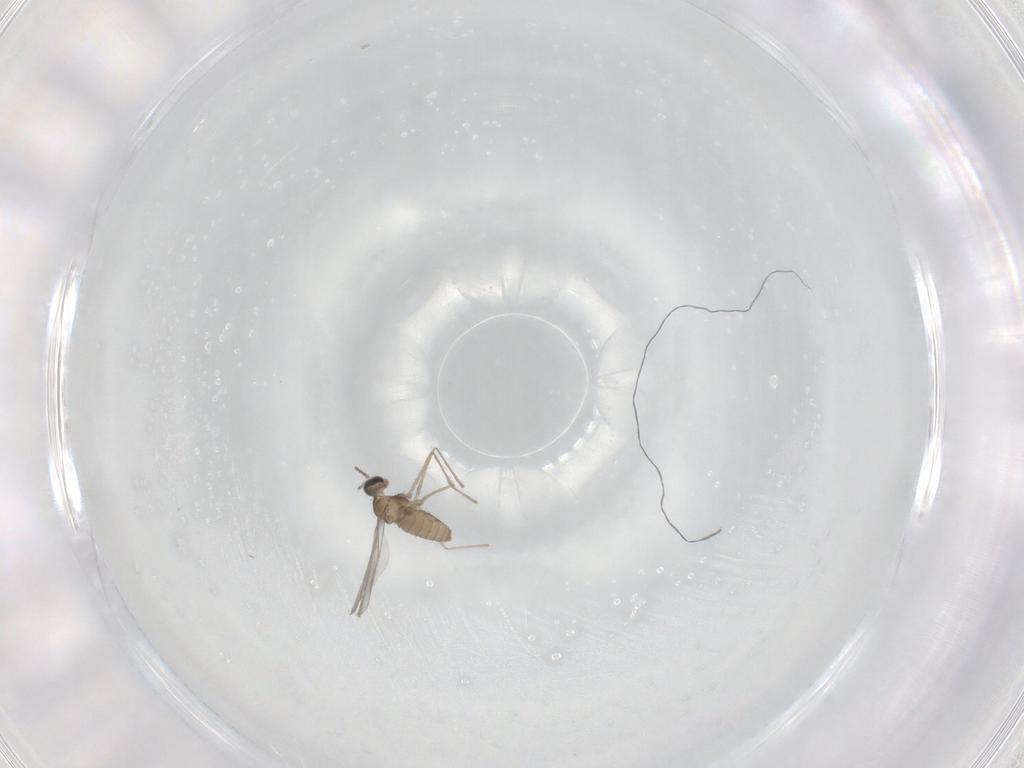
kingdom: Animalia
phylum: Arthropoda
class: Insecta
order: Diptera
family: Cecidomyiidae
